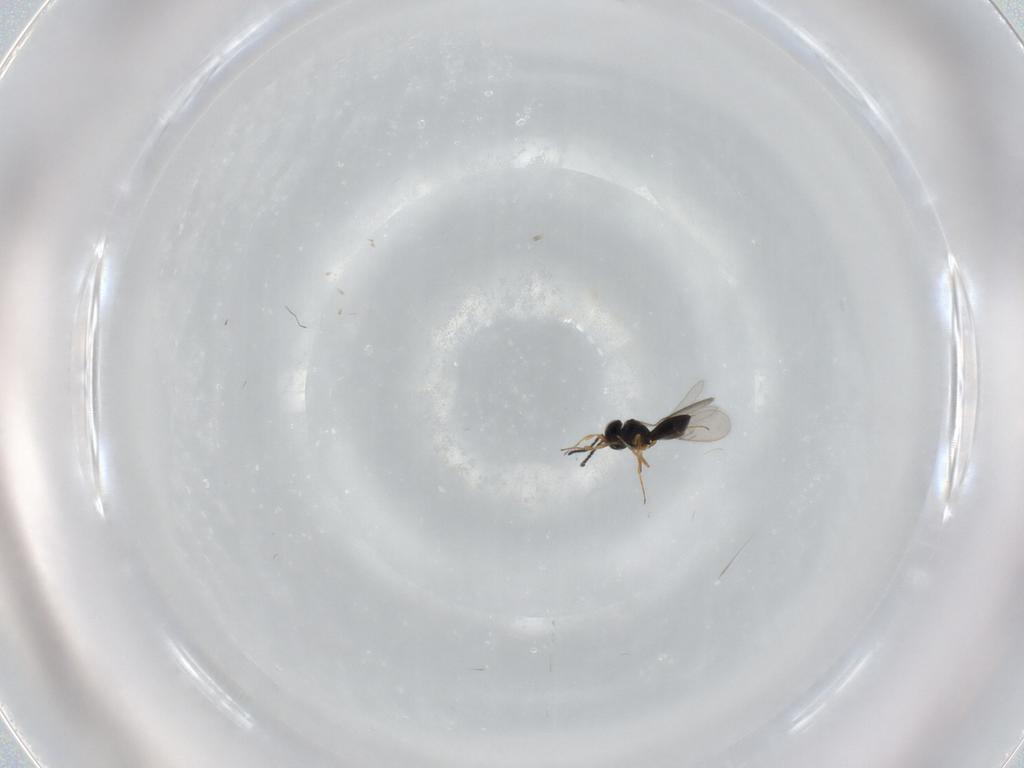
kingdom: Animalia
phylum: Arthropoda
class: Insecta
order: Hymenoptera
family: Scelionidae
